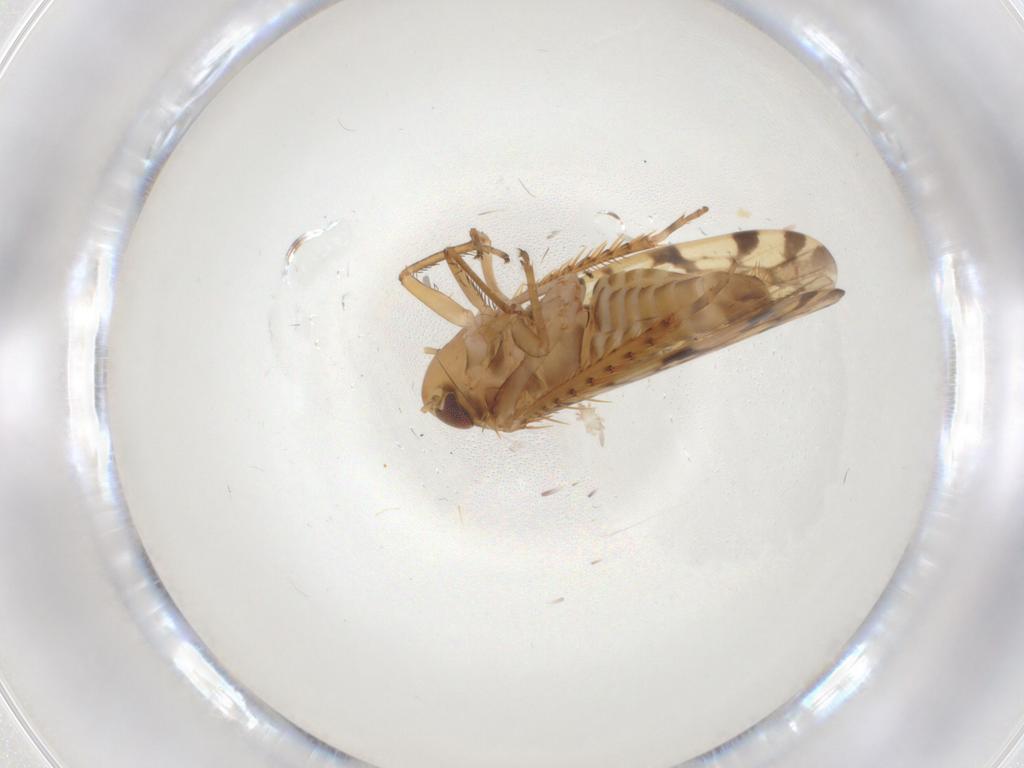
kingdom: Animalia
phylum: Arthropoda
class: Insecta
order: Hemiptera
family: Cicadellidae
